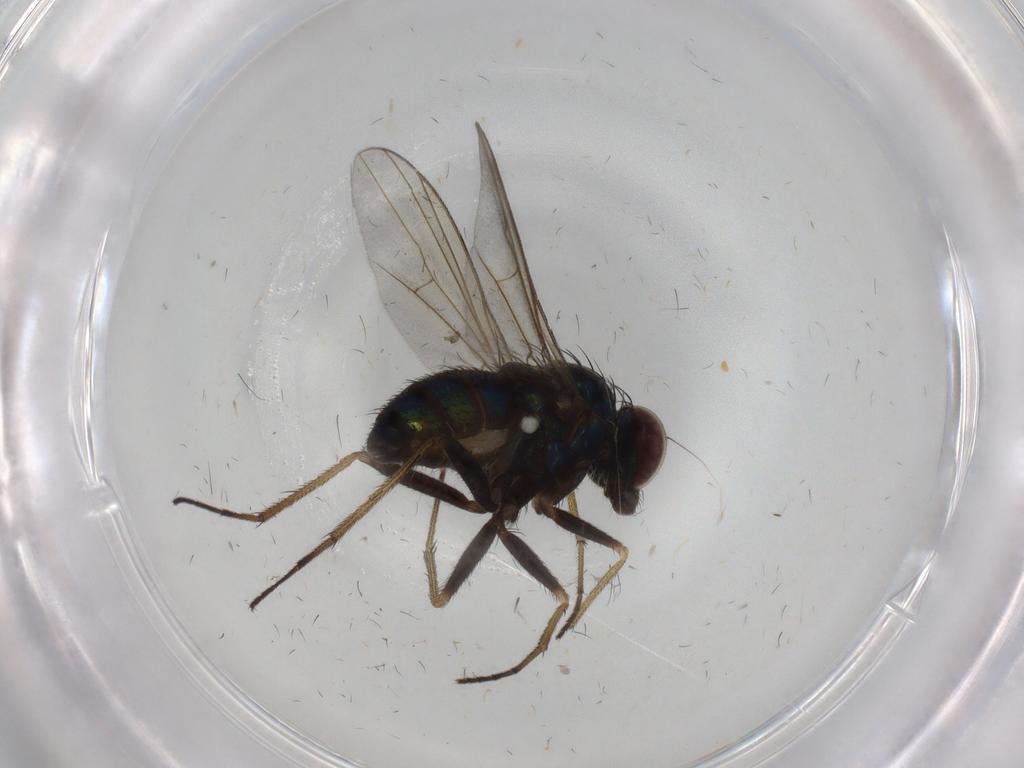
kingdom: Animalia
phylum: Arthropoda
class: Insecta
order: Diptera
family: Dolichopodidae
